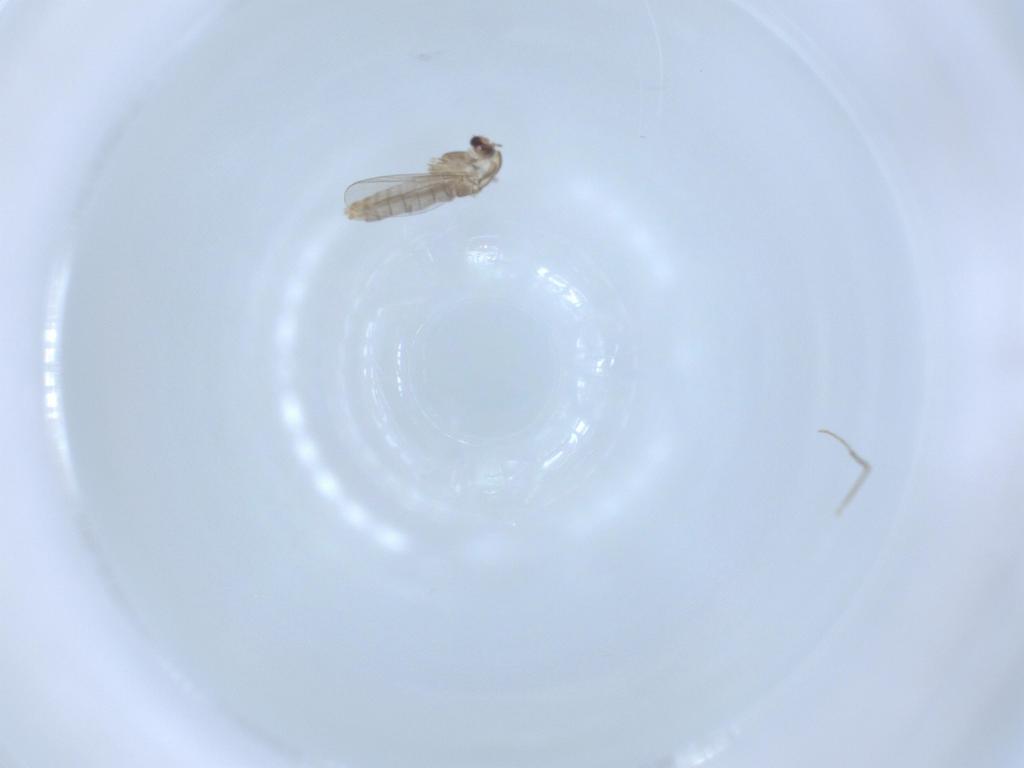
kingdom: Animalia
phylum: Arthropoda
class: Insecta
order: Diptera
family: Chironomidae
